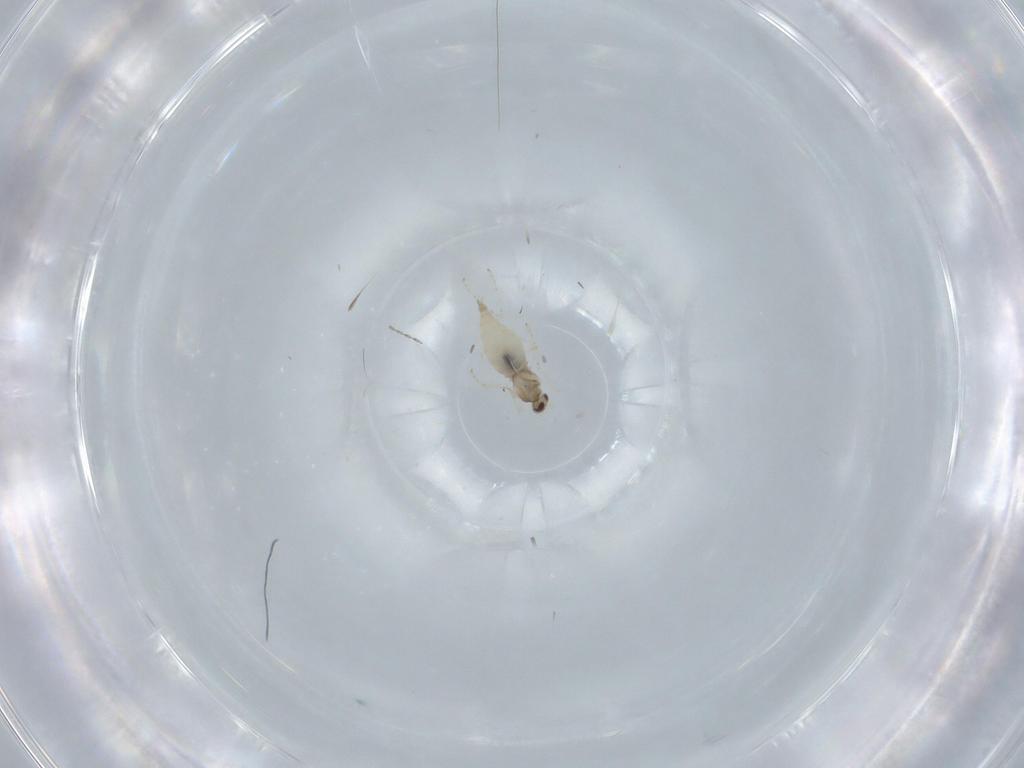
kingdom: Animalia
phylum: Arthropoda
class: Insecta
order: Diptera
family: Cecidomyiidae
